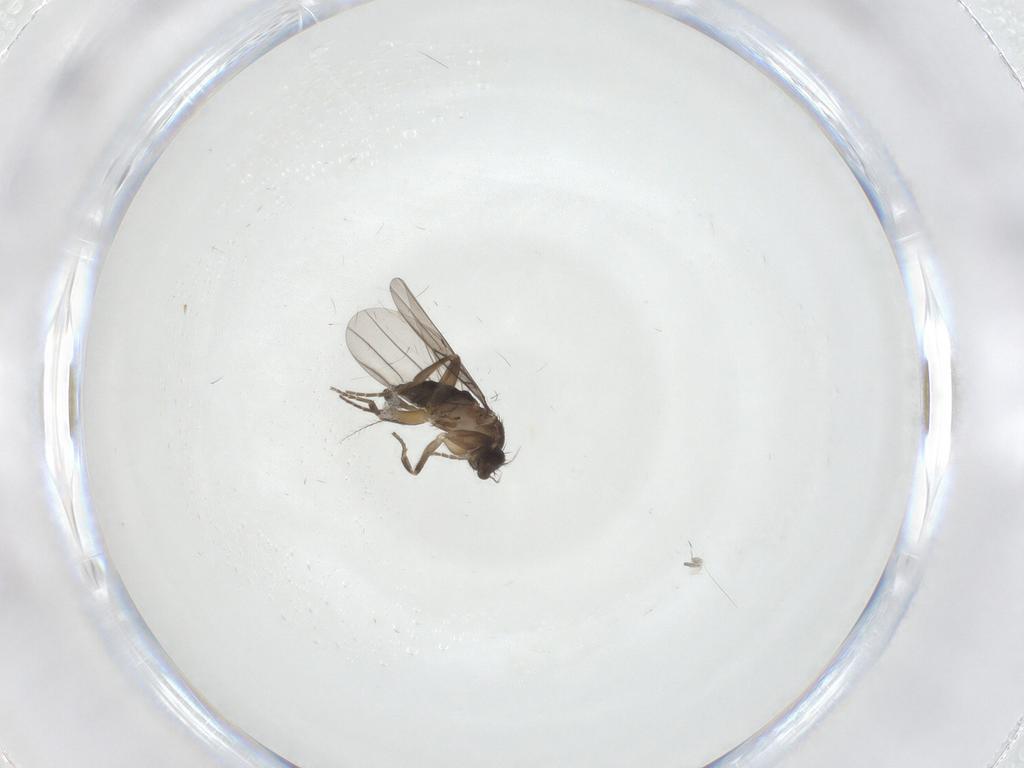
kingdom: Animalia
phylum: Arthropoda
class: Insecta
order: Diptera
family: Phoridae
